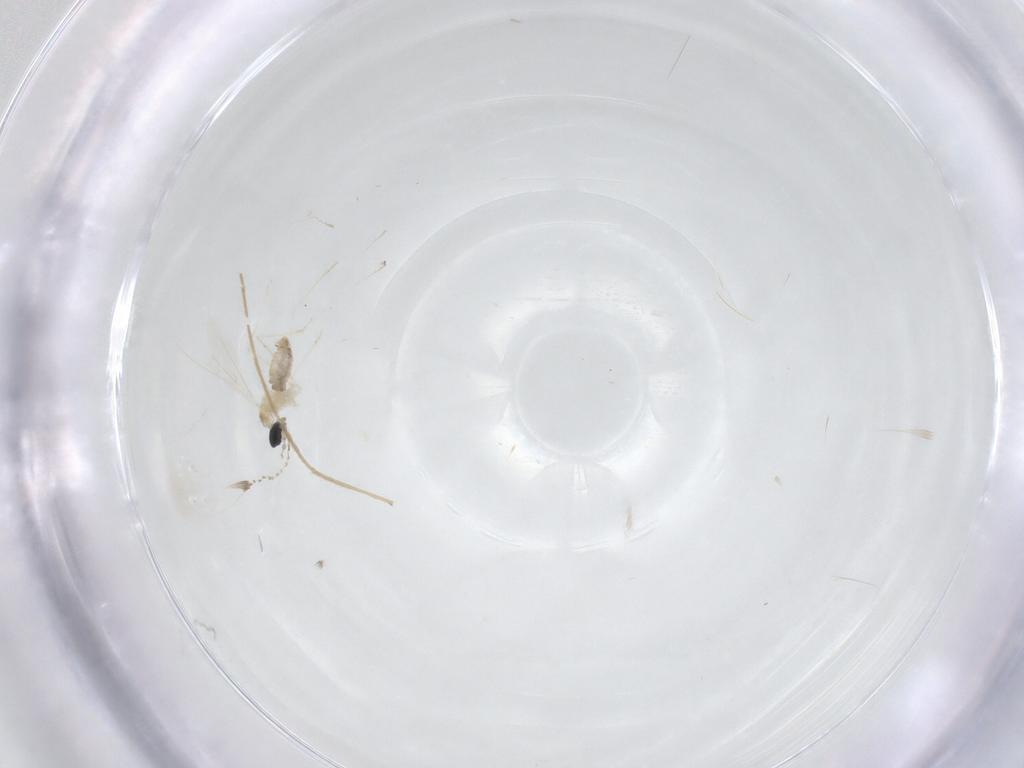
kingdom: Animalia
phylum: Arthropoda
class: Insecta
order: Diptera
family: Chironomidae
